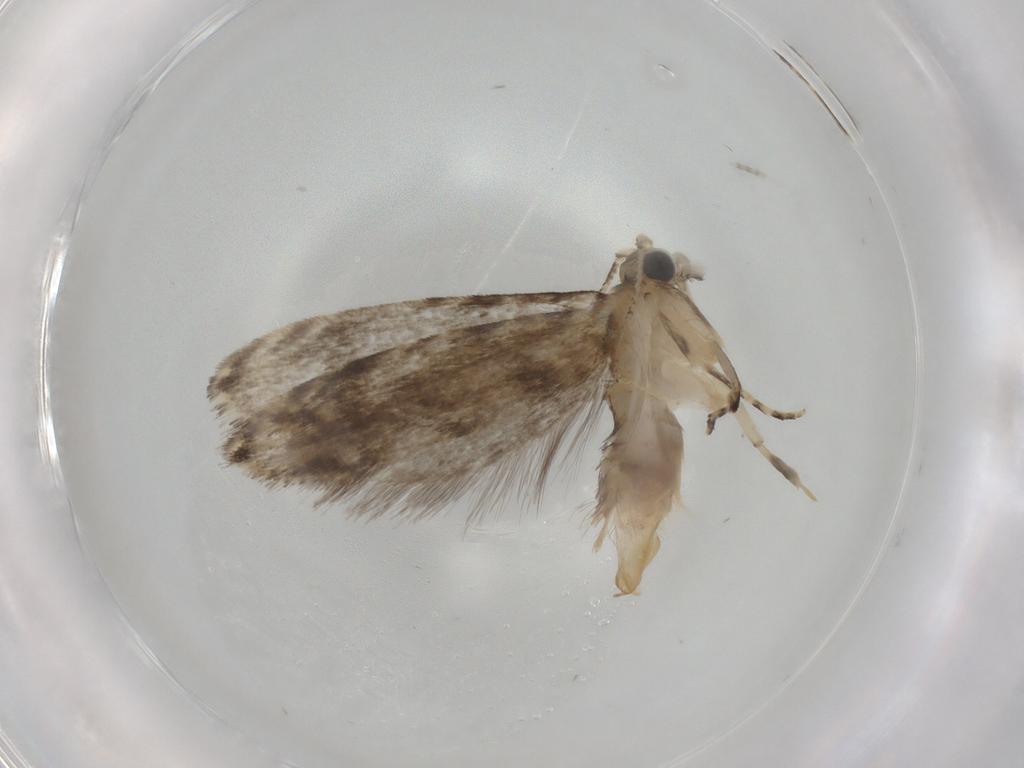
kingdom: Animalia
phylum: Arthropoda
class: Insecta
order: Lepidoptera
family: Tineidae
